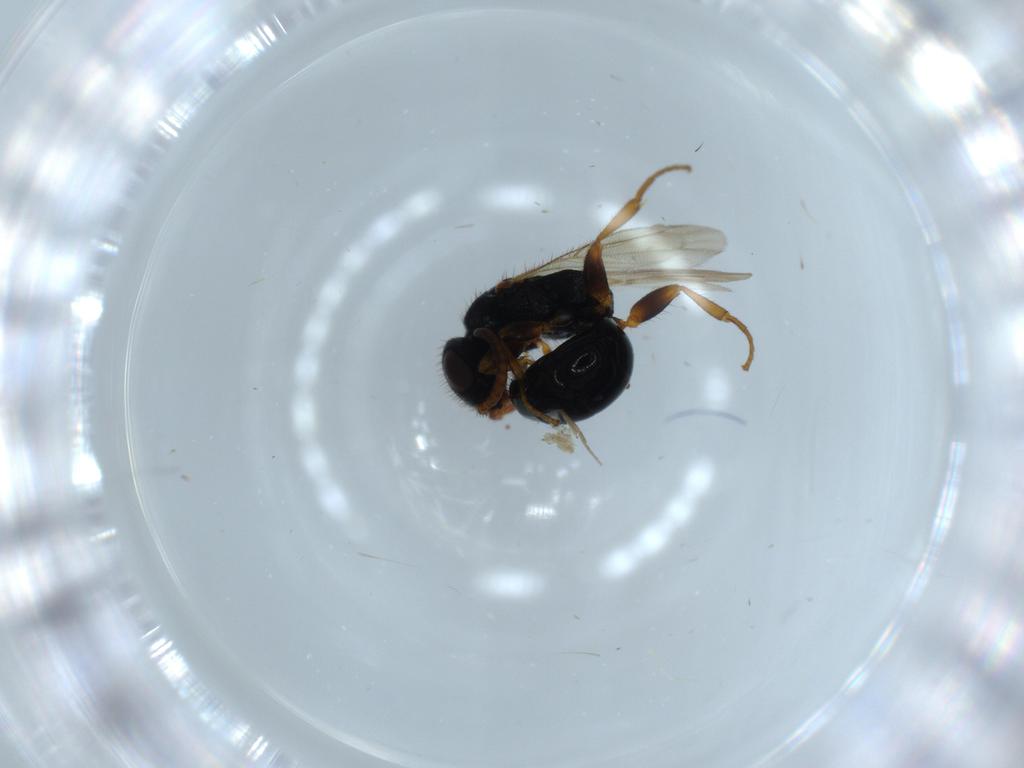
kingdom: Animalia
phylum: Arthropoda
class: Insecta
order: Hymenoptera
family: Bethylidae
